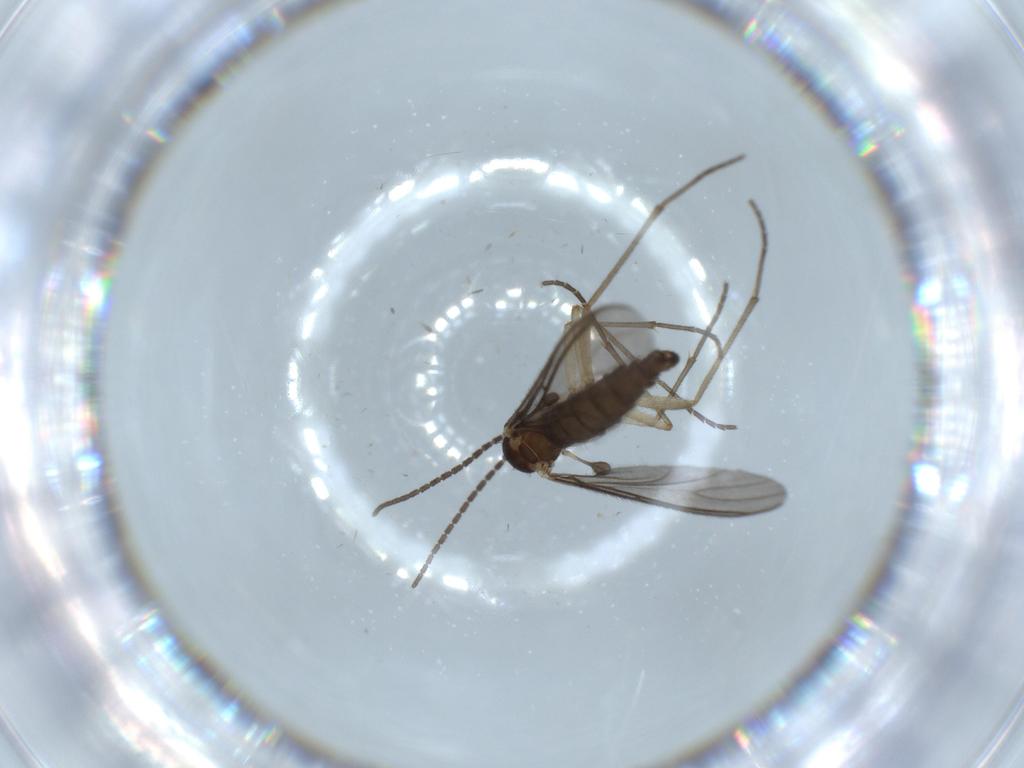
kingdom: Animalia
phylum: Arthropoda
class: Insecta
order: Diptera
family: Sciaridae
